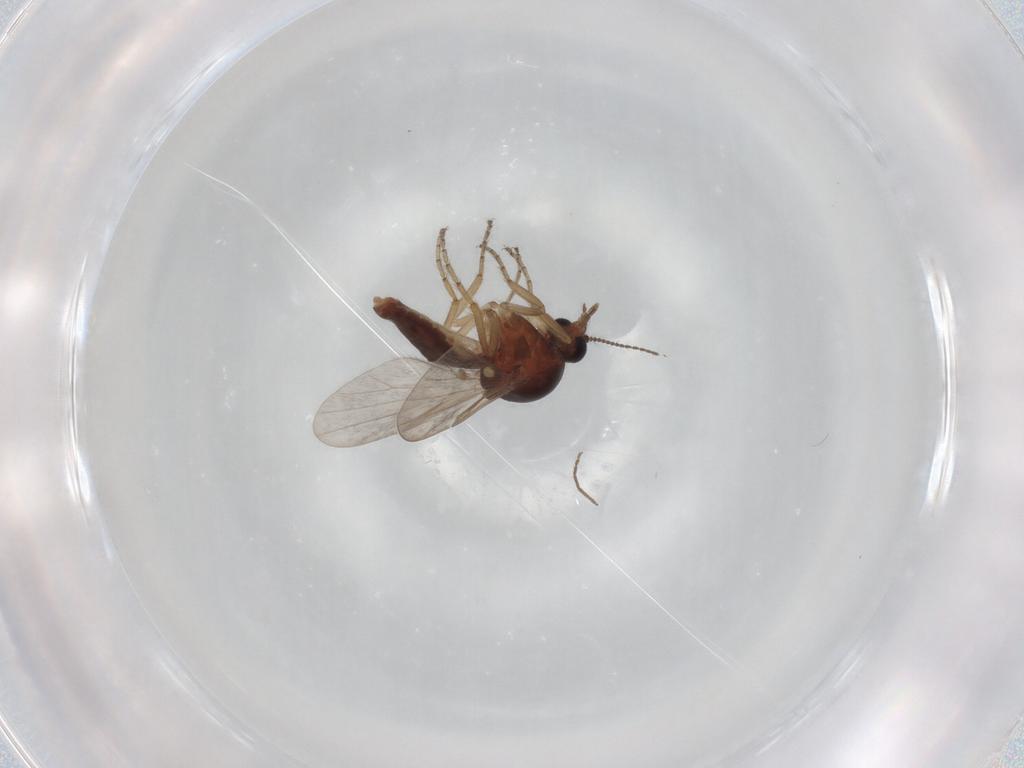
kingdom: Animalia
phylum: Arthropoda
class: Insecta
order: Diptera
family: Ceratopogonidae
